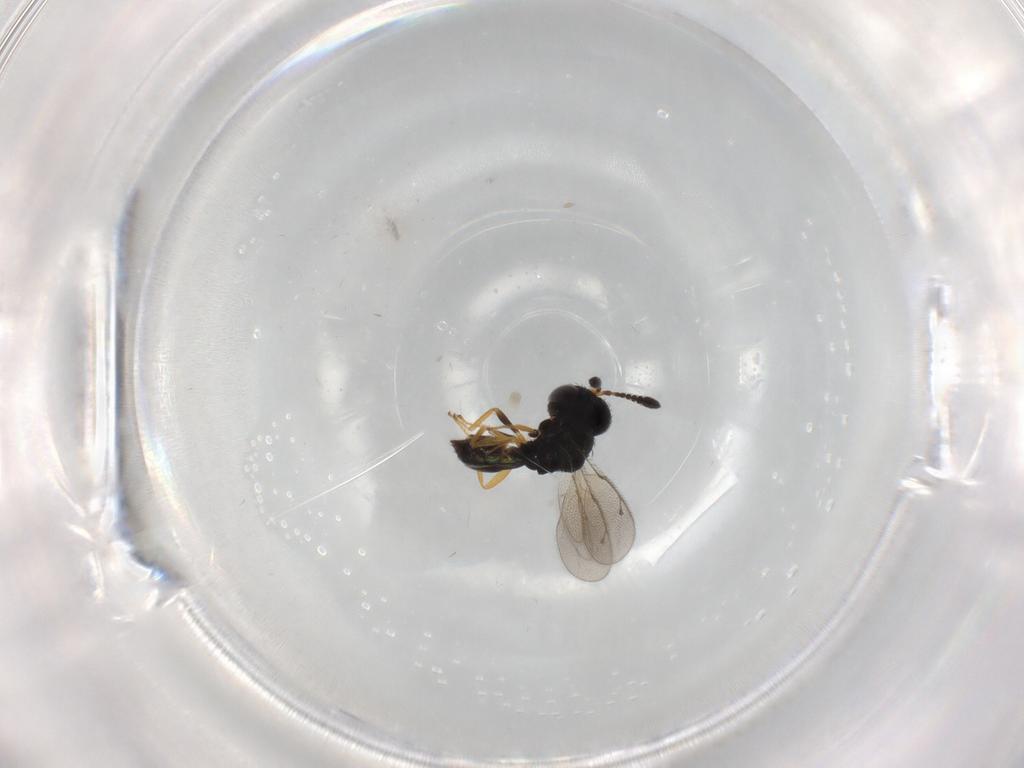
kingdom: Animalia
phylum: Arthropoda
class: Insecta
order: Hymenoptera
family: Pteromalidae
